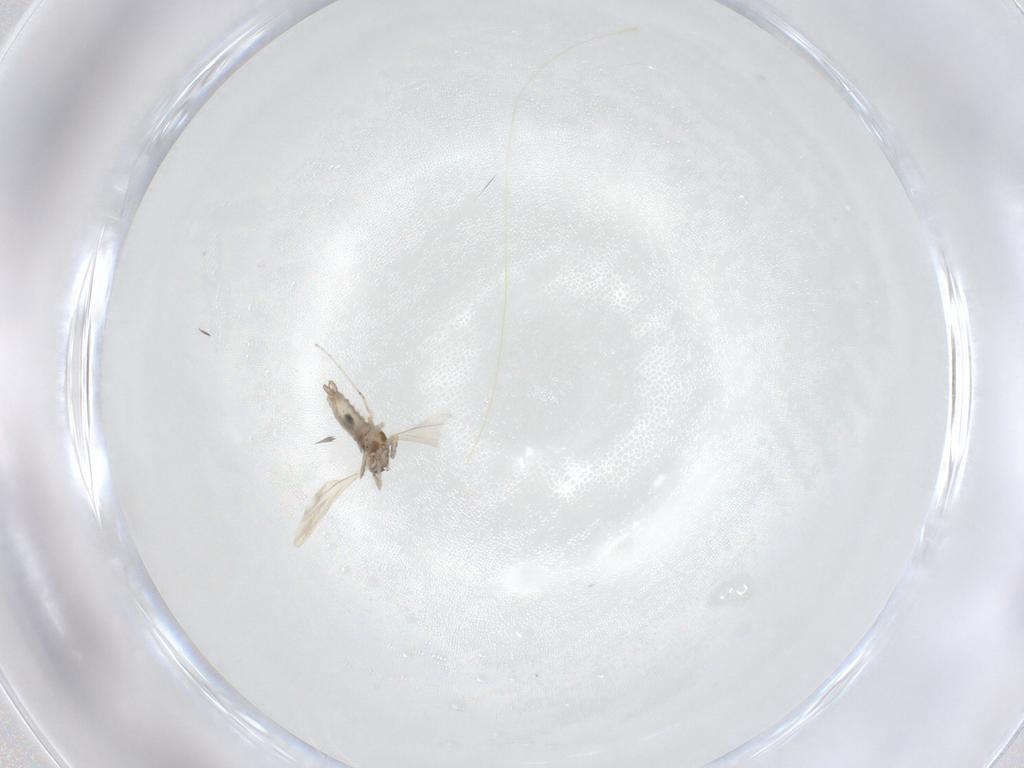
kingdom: Animalia
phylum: Arthropoda
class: Insecta
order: Diptera
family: Cecidomyiidae
